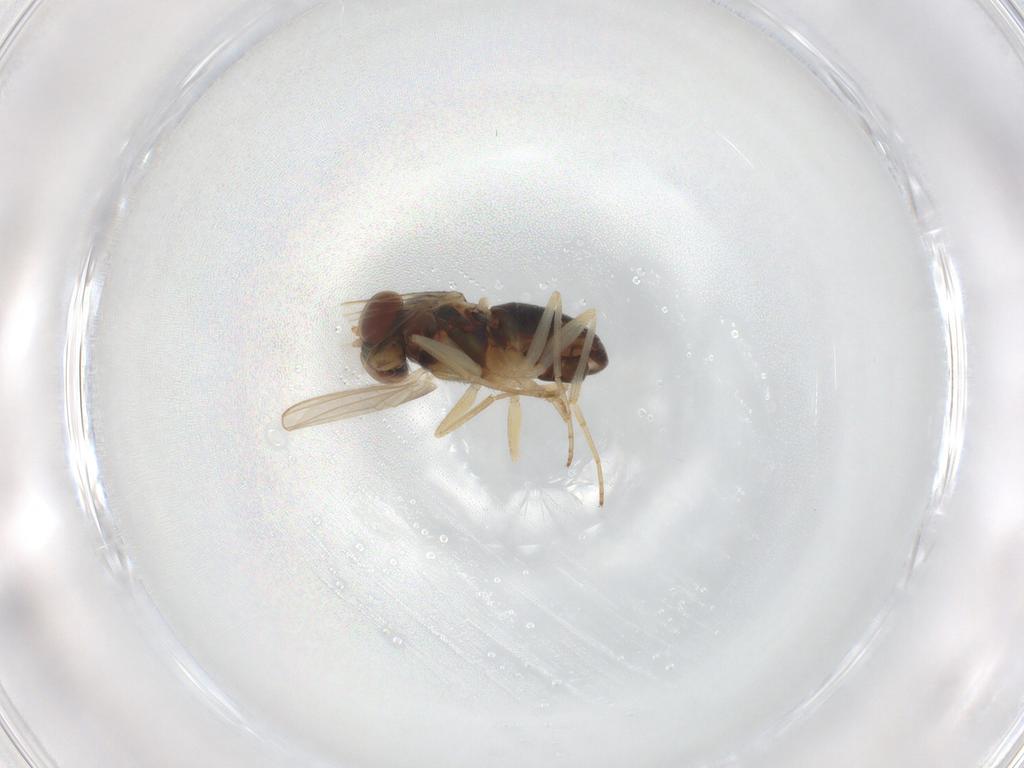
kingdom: Animalia
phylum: Arthropoda
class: Insecta
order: Diptera
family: Dolichopodidae
